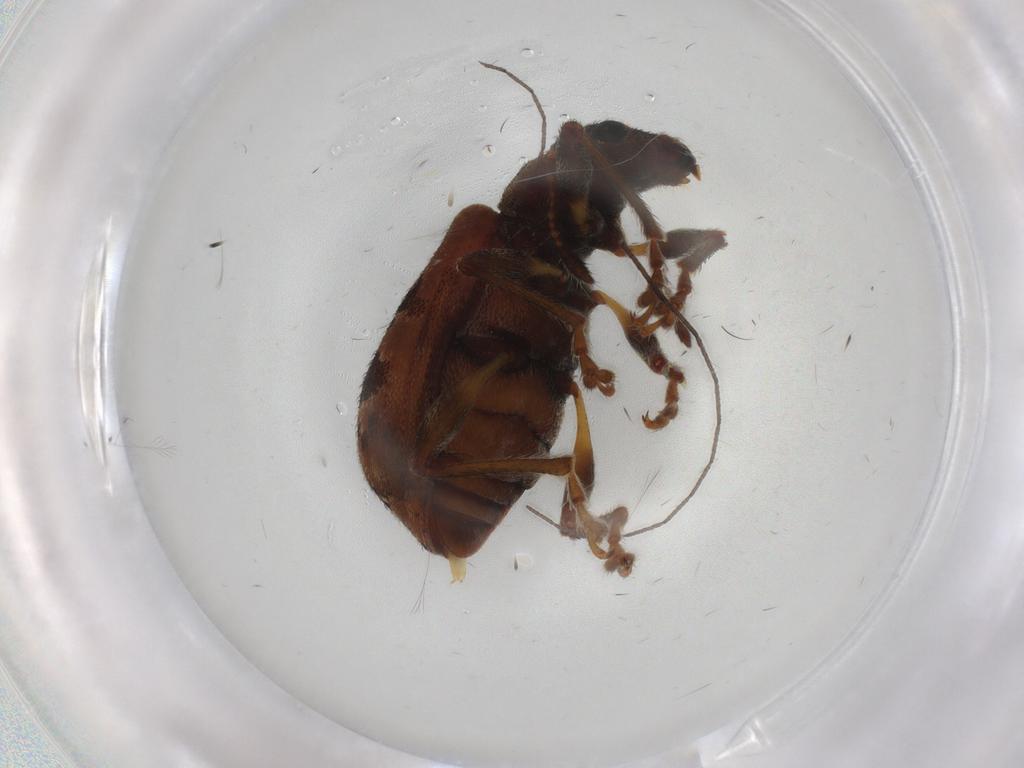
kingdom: Animalia
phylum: Arthropoda
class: Insecta
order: Coleoptera
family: Curculionidae
